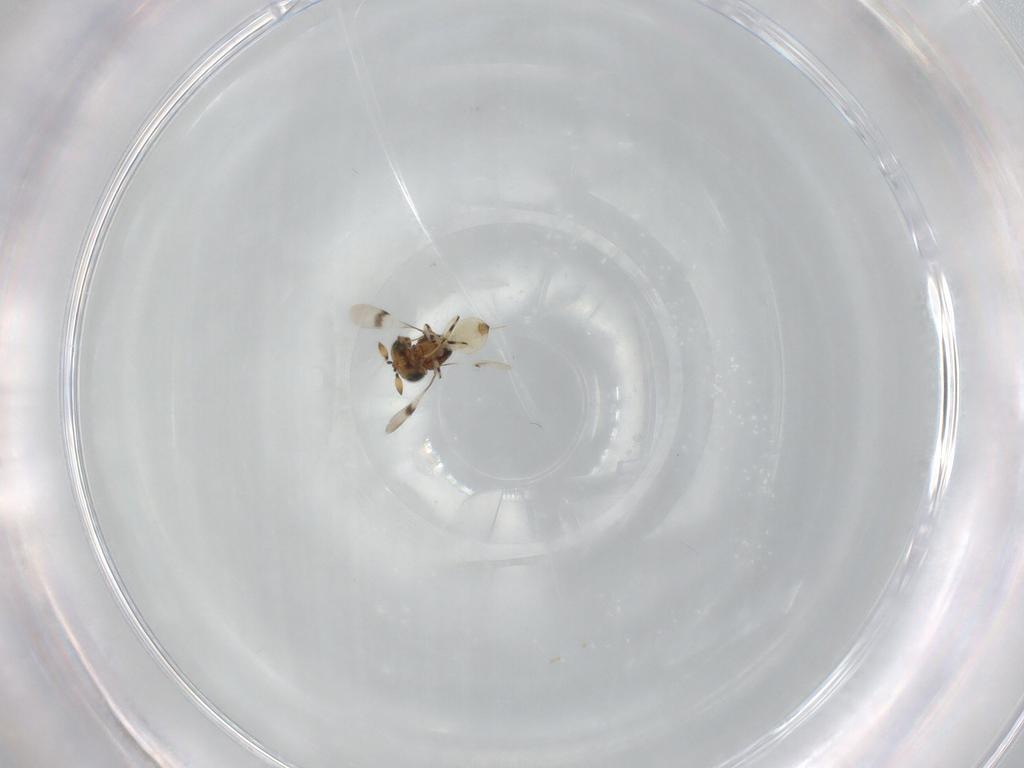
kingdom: Animalia
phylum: Arthropoda
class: Insecta
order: Hymenoptera
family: Scelionidae
